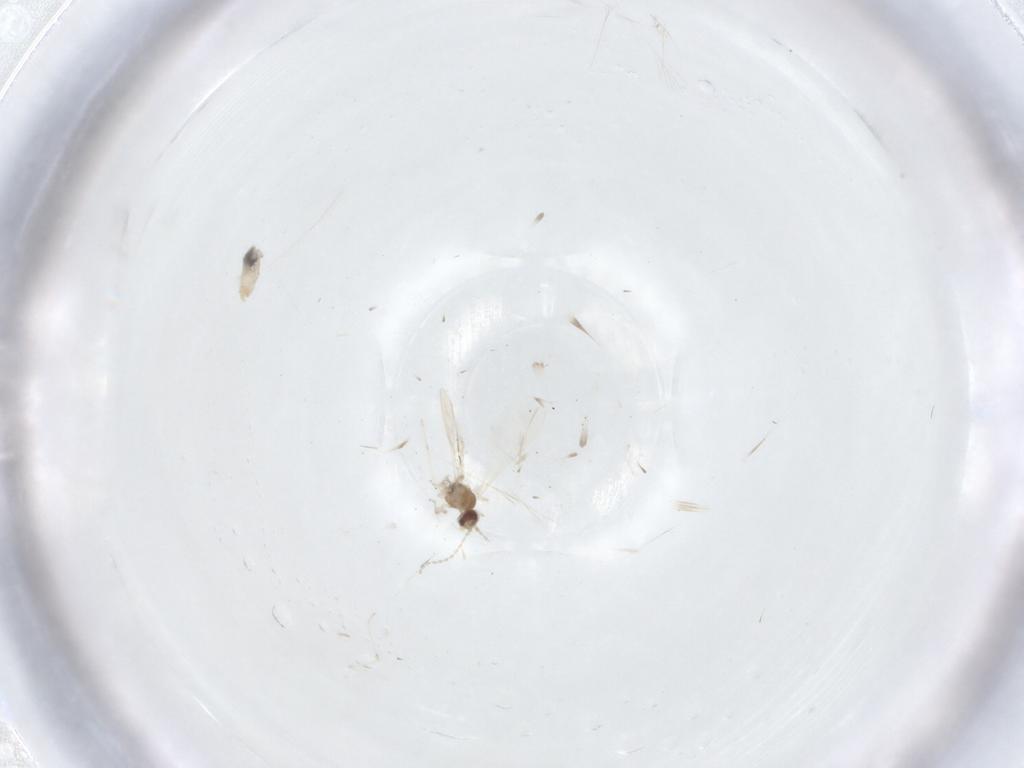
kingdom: Animalia
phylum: Arthropoda
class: Insecta
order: Diptera
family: Cecidomyiidae
